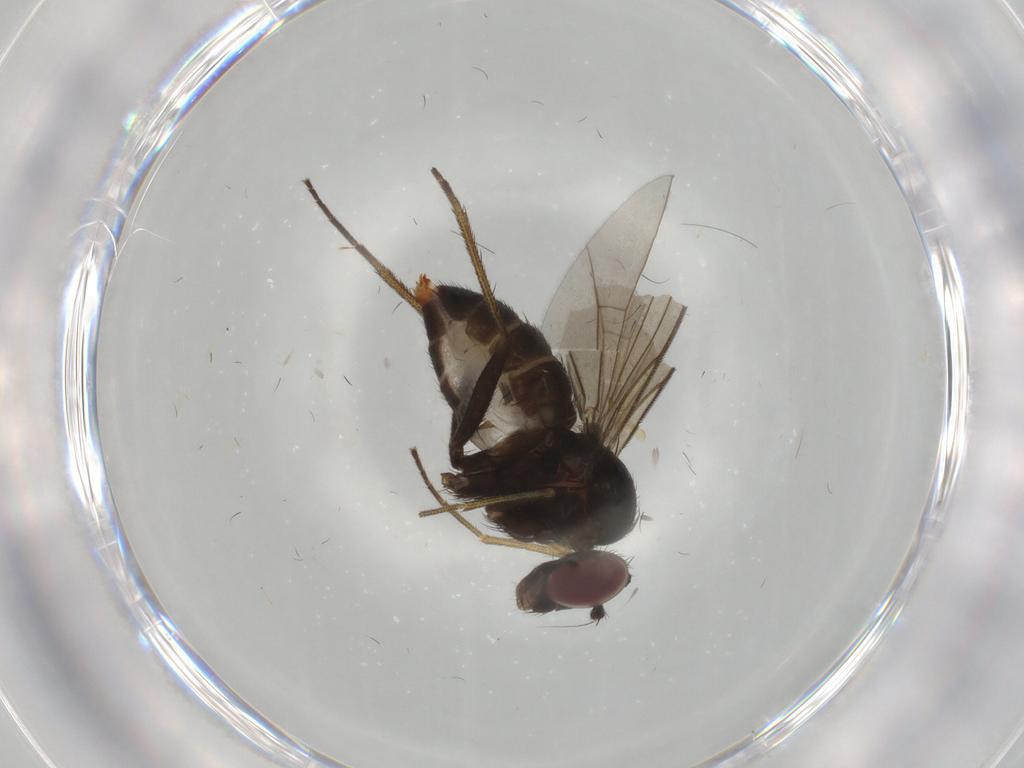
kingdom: Animalia
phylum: Arthropoda
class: Insecta
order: Diptera
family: Dolichopodidae
